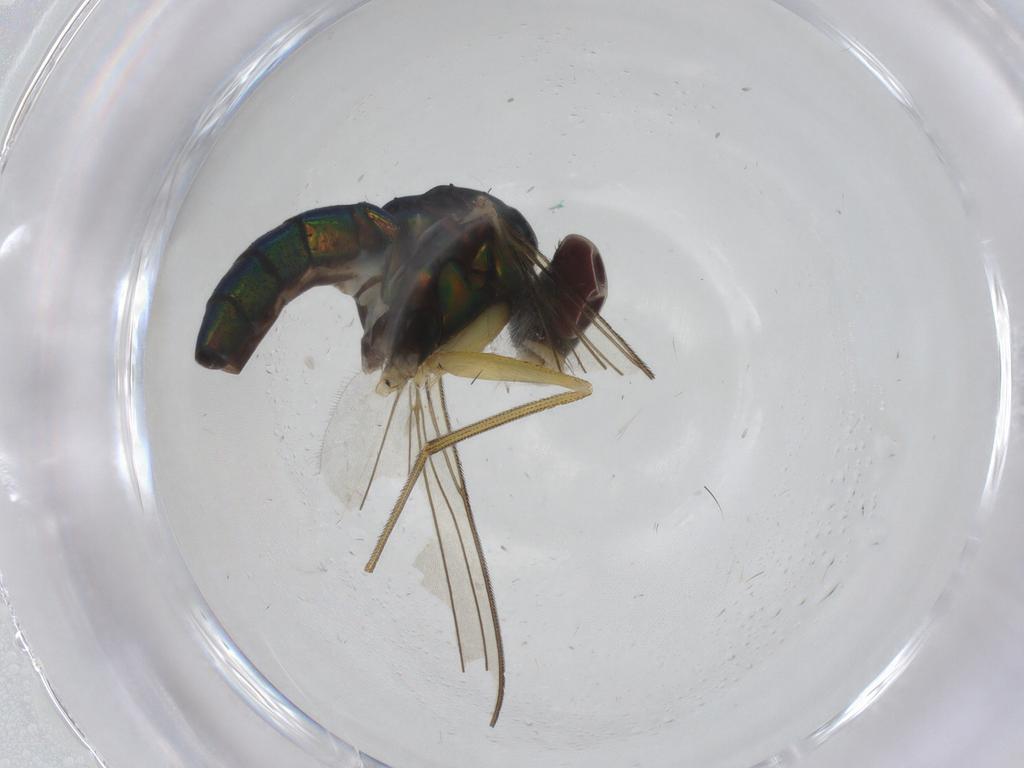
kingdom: Animalia
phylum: Arthropoda
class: Insecta
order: Diptera
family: Dolichopodidae
